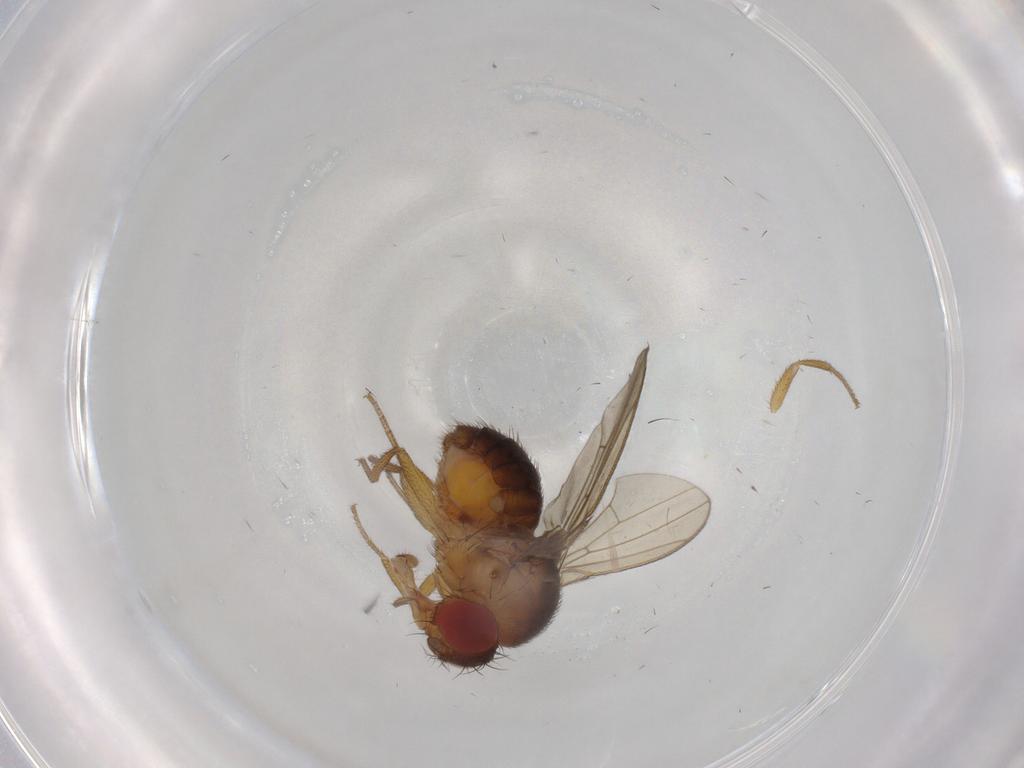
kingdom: Animalia
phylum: Arthropoda
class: Insecta
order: Diptera
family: Drosophilidae
